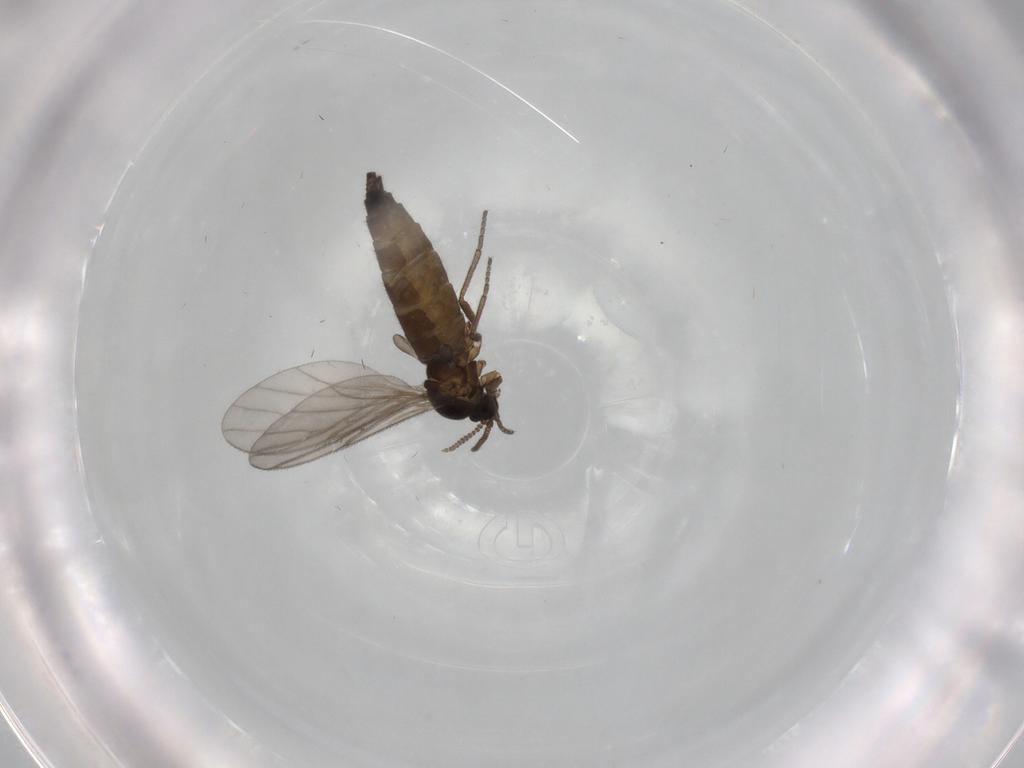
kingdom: Animalia
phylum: Arthropoda
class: Insecta
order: Diptera
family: Sciaridae
